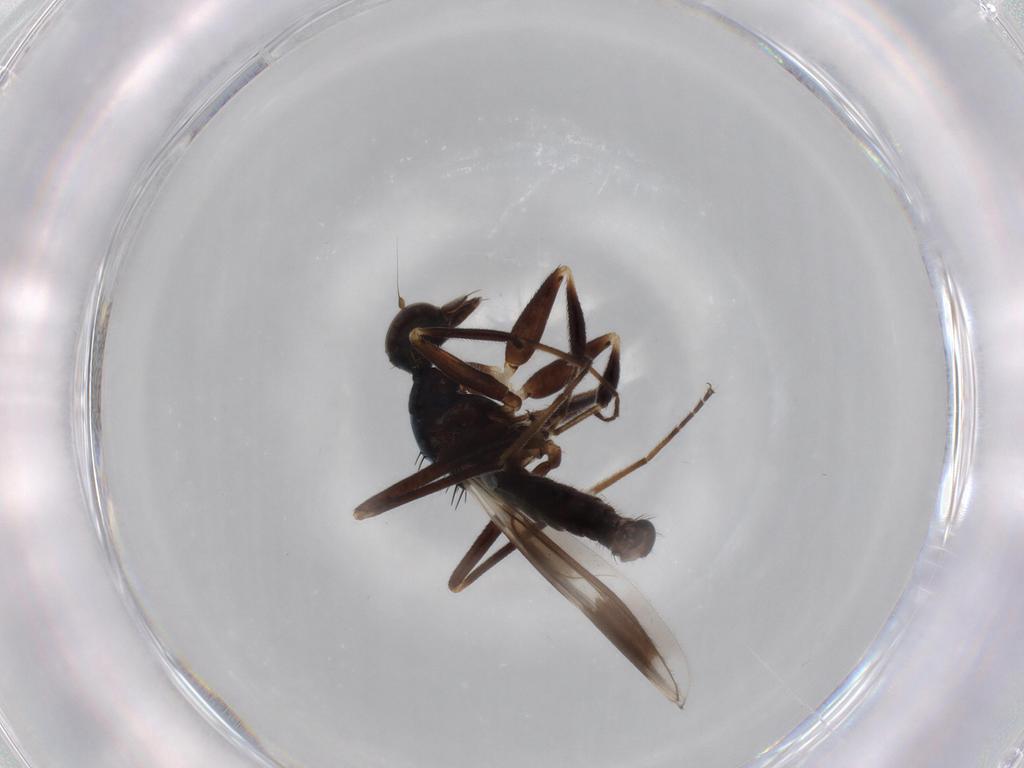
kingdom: Animalia
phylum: Arthropoda
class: Insecta
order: Diptera
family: Hybotidae
